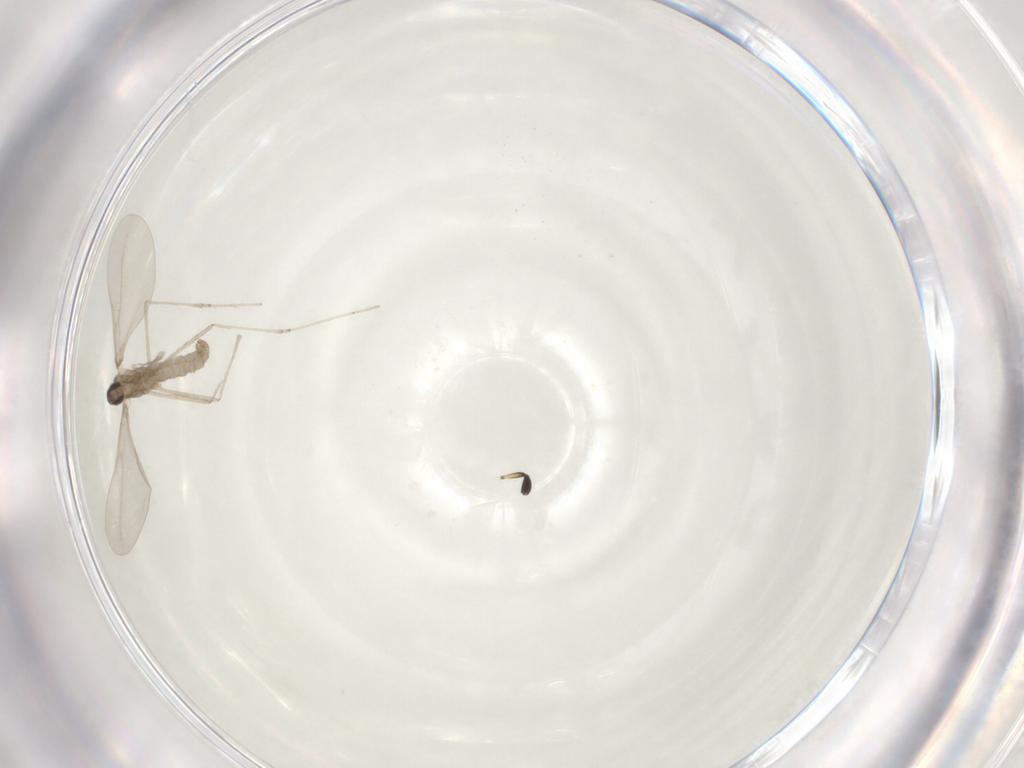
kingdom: Animalia
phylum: Arthropoda
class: Insecta
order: Diptera
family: Cecidomyiidae
